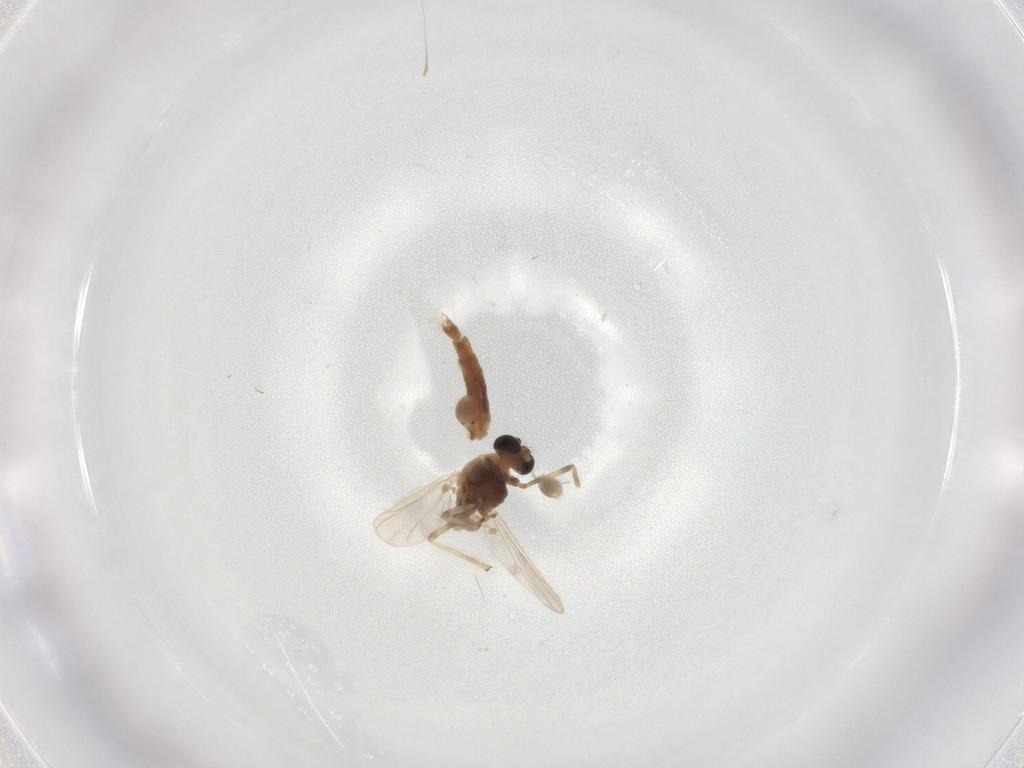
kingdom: Animalia
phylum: Arthropoda
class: Insecta
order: Diptera
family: Chironomidae
